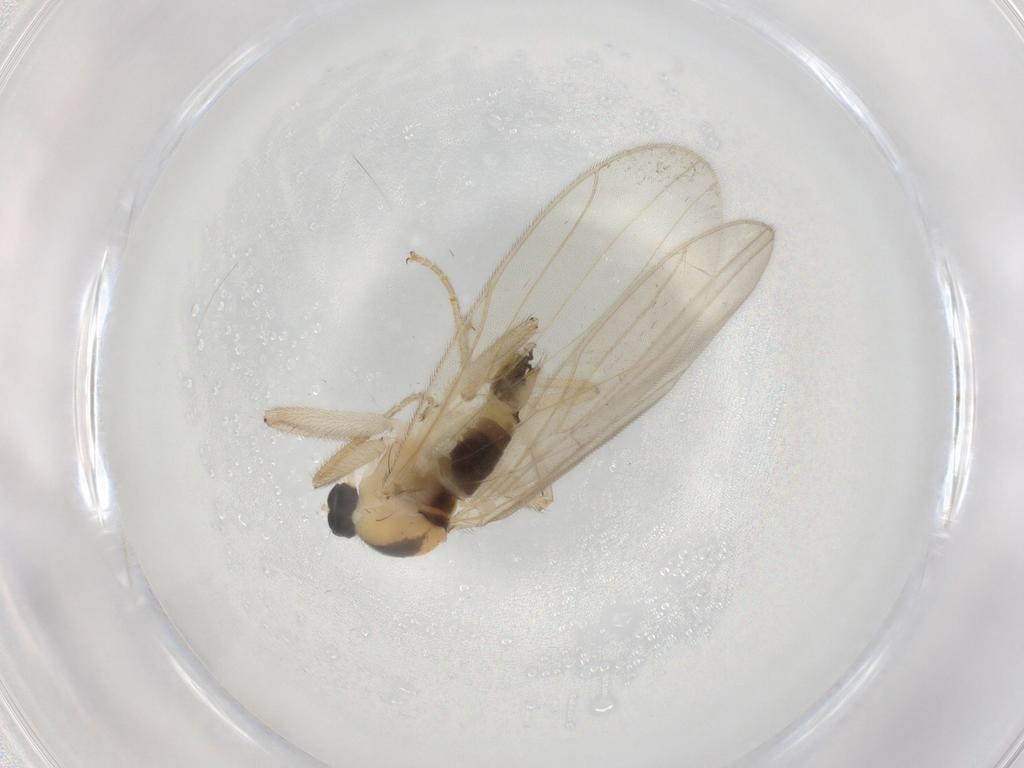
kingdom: Animalia
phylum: Arthropoda
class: Insecta
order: Diptera
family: Hybotidae
